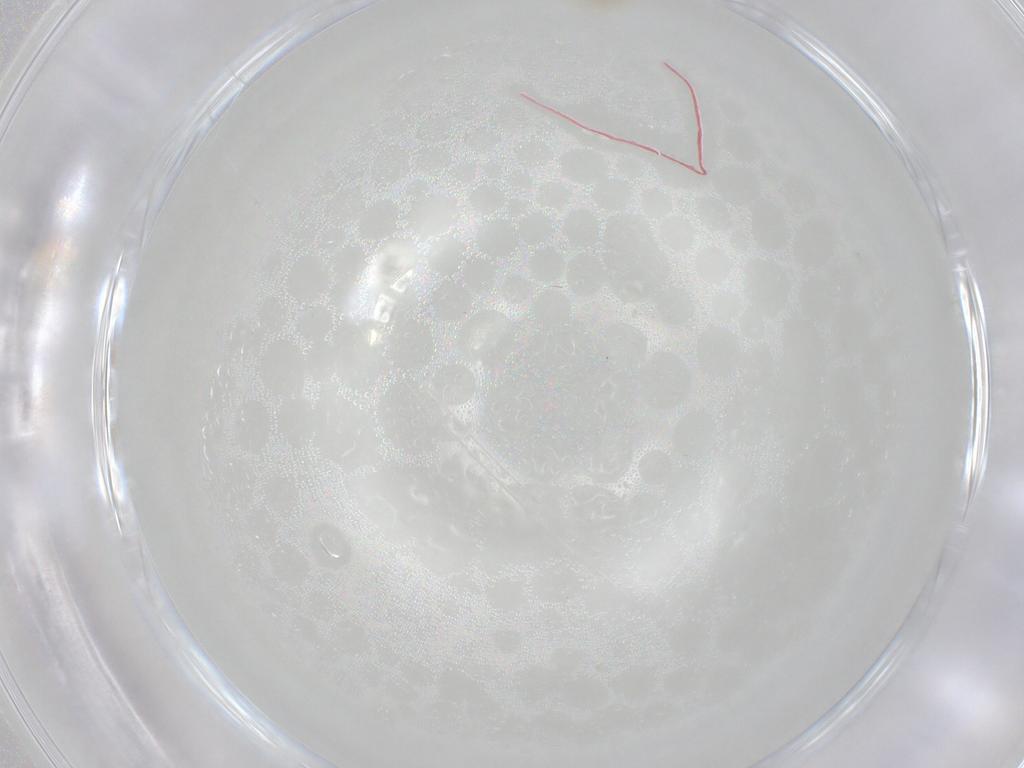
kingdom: Animalia
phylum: Arthropoda
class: Insecta
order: Diptera
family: Cecidomyiidae
